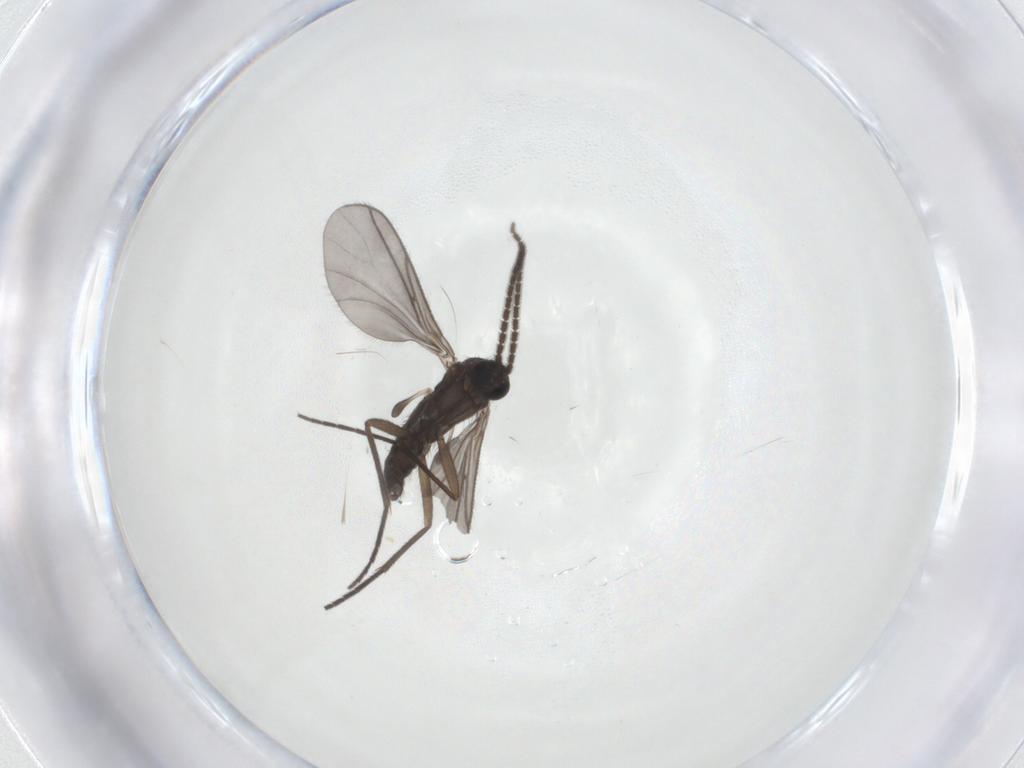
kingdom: Animalia
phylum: Arthropoda
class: Insecta
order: Diptera
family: Sciaridae
